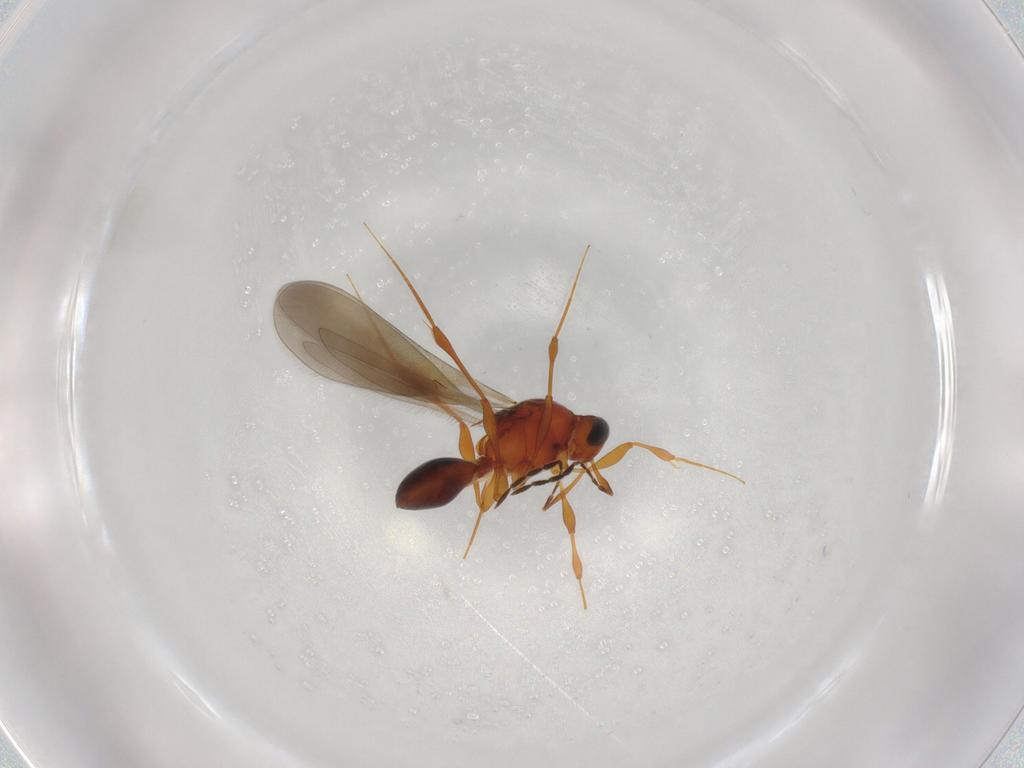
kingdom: Animalia
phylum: Arthropoda
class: Insecta
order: Hymenoptera
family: Platygastridae
